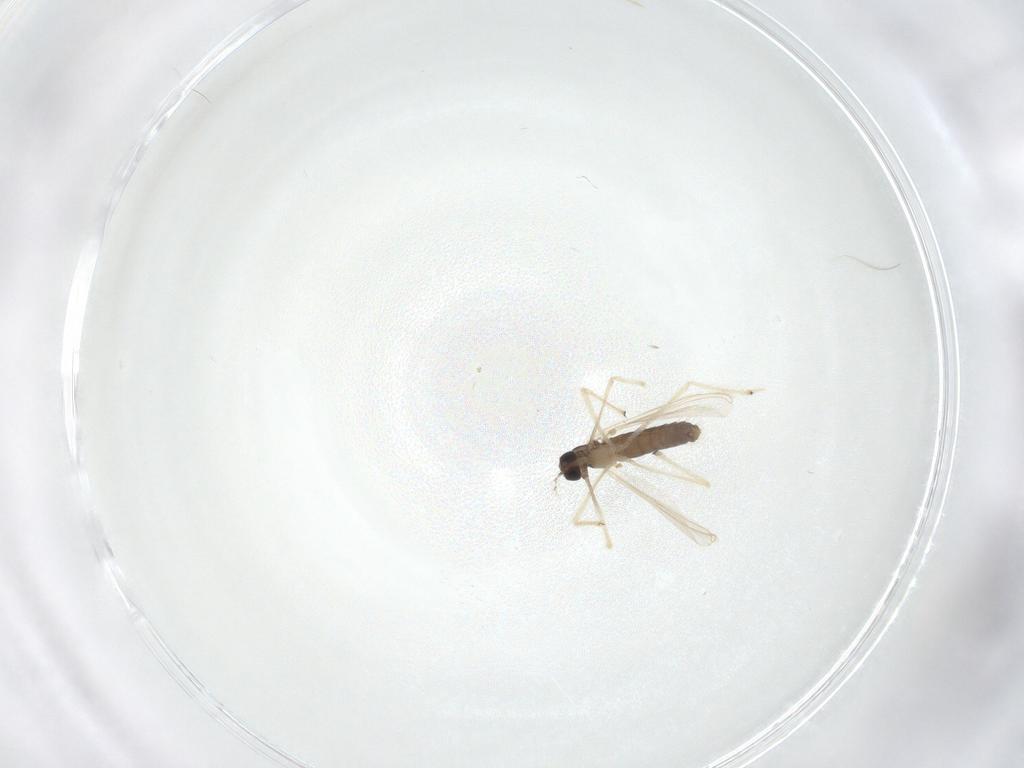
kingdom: Animalia
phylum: Arthropoda
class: Insecta
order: Diptera
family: Chironomidae
